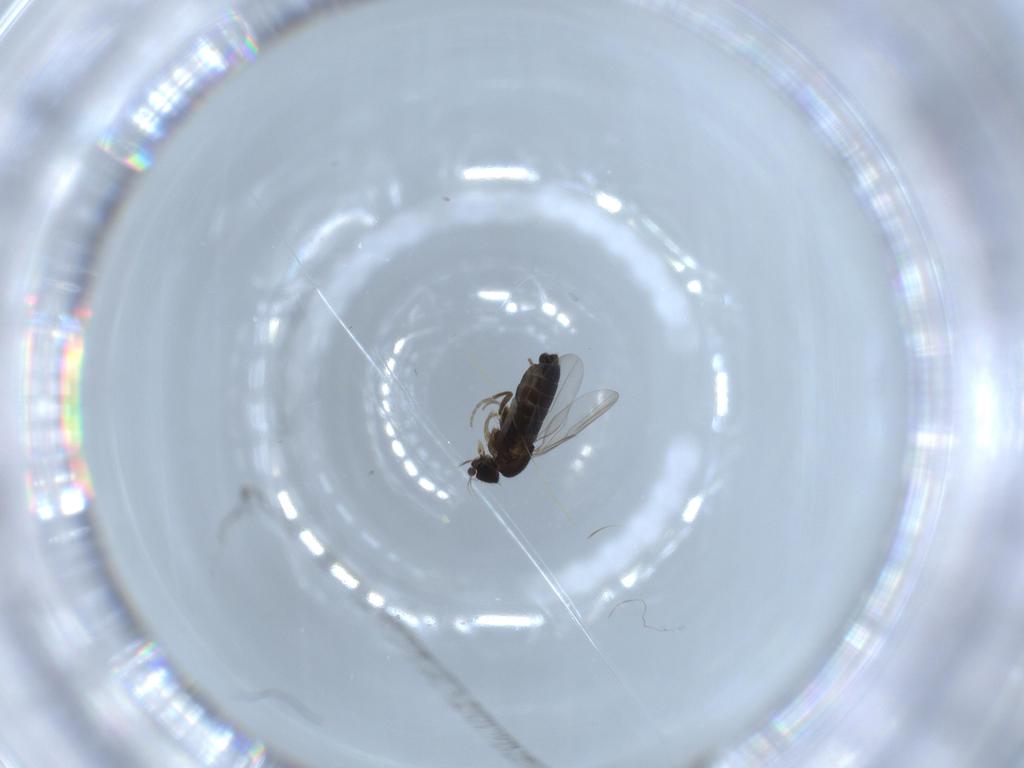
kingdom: Animalia
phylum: Arthropoda
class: Insecta
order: Diptera
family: Phoridae
